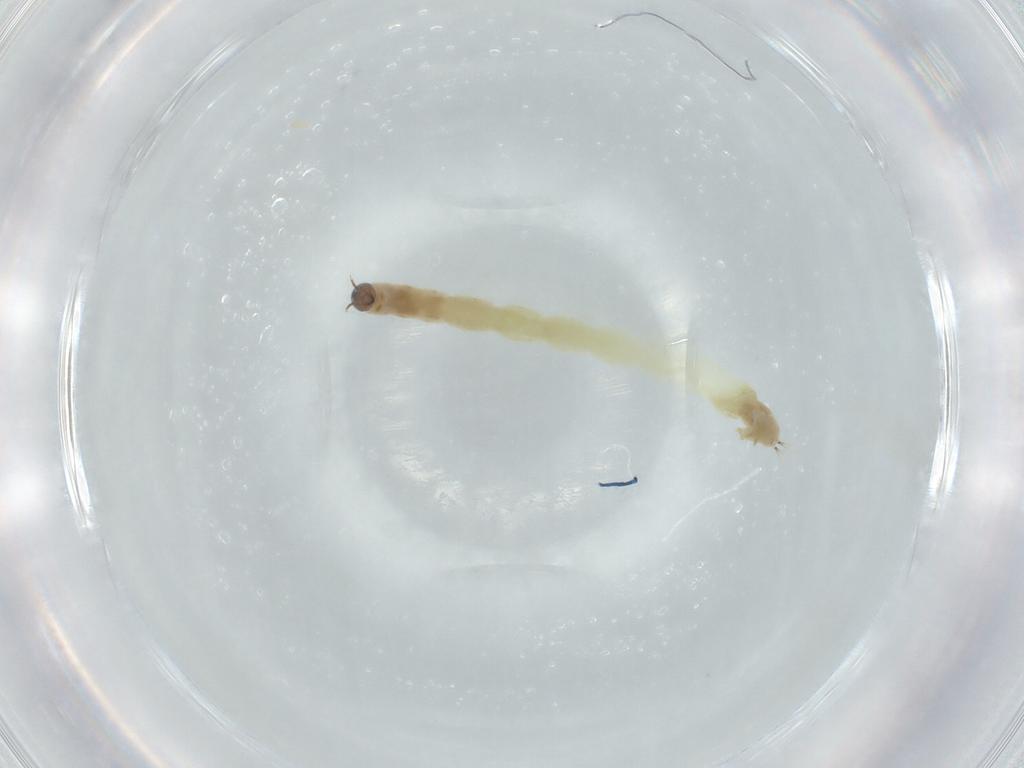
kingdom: Animalia
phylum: Arthropoda
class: Insecta
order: Diptera
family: Chironomidae
